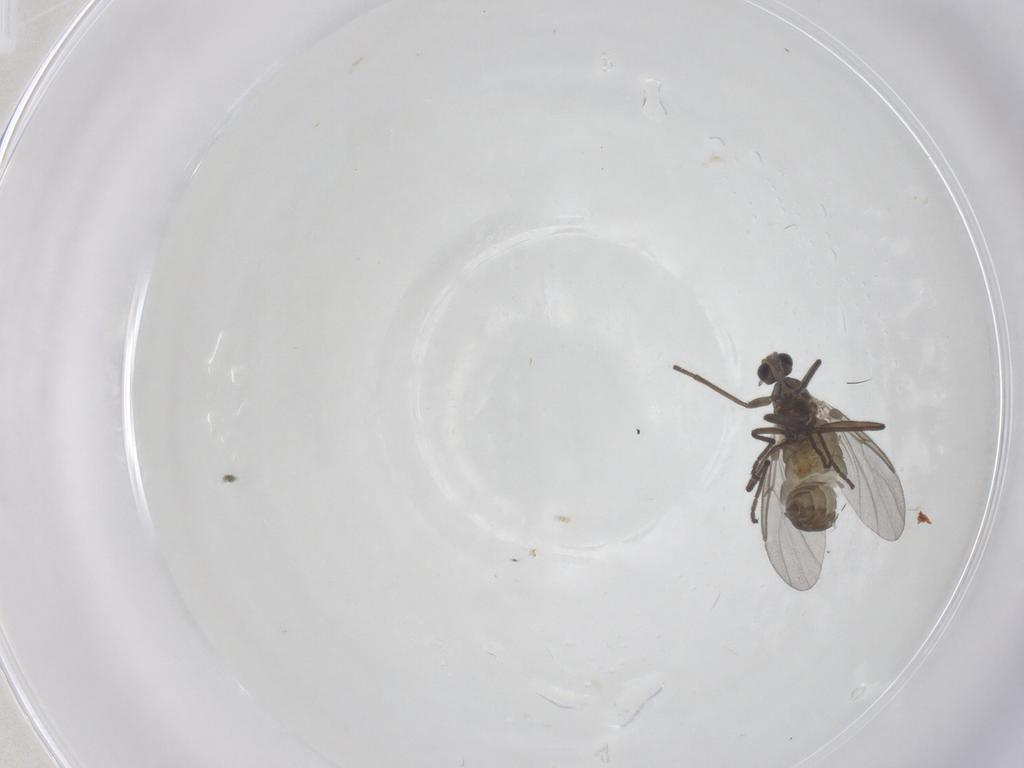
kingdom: Animalia
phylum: Arthropoda
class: Insecta
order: Diptera
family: Cecidomyiidae
